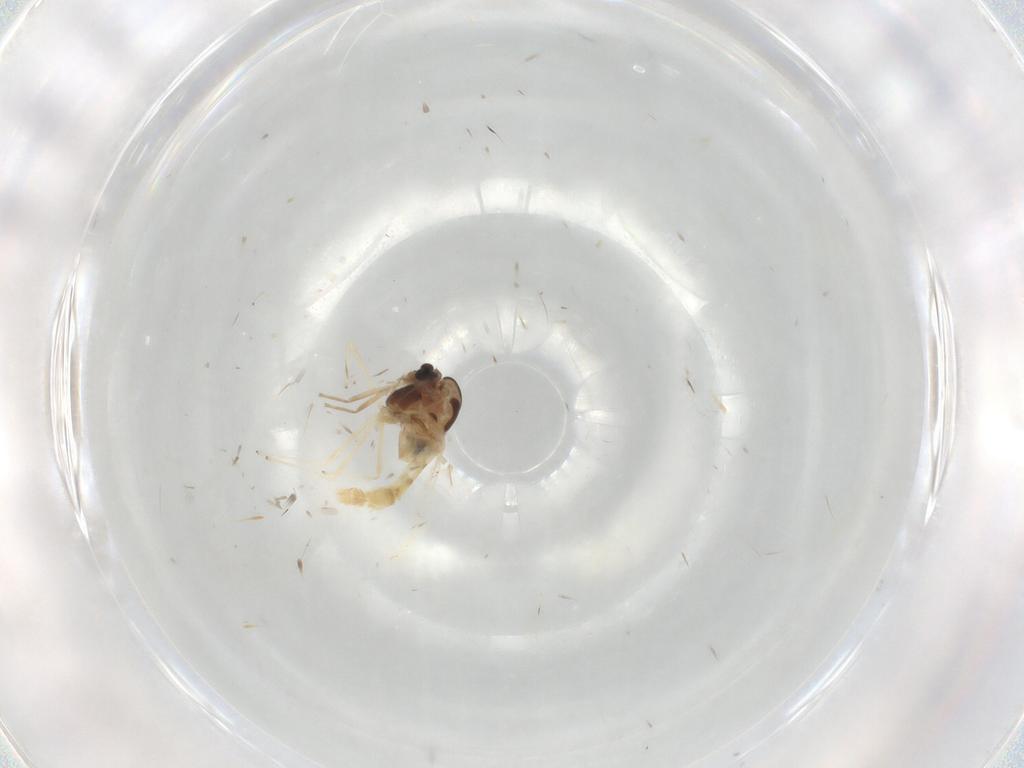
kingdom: Animalia
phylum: Arthropoda
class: Insecta
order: Diptera
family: Chironomidae
